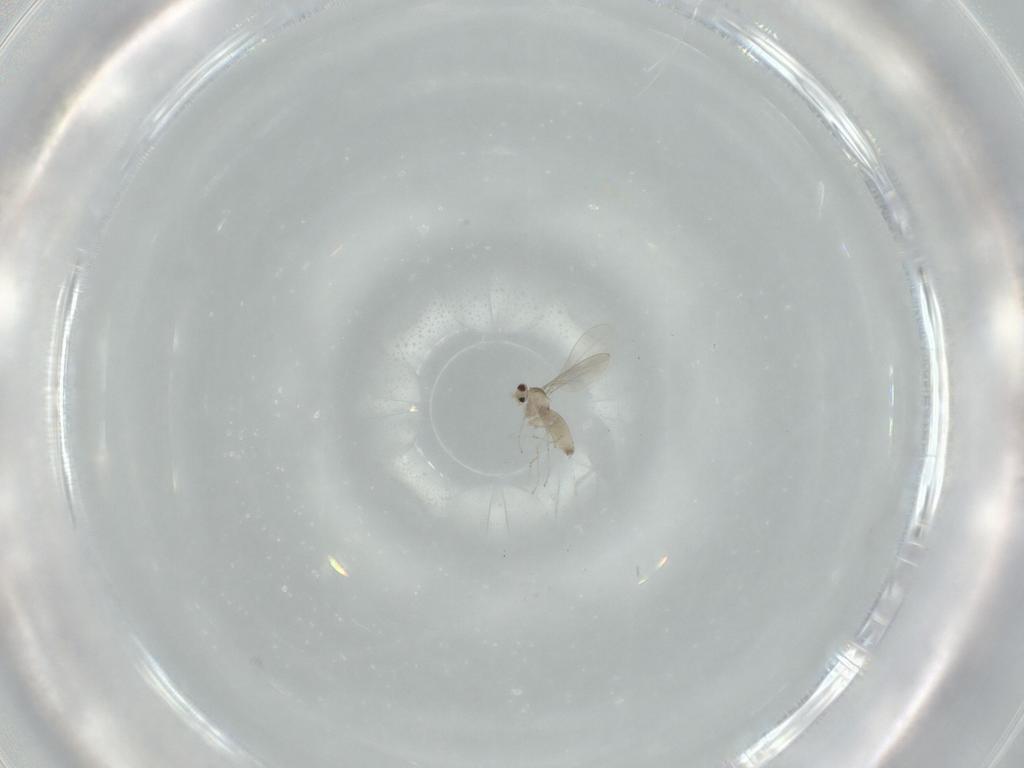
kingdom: Animalia
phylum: Arthropoda
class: Insecta
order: Diptera
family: Cecidomyiidae
